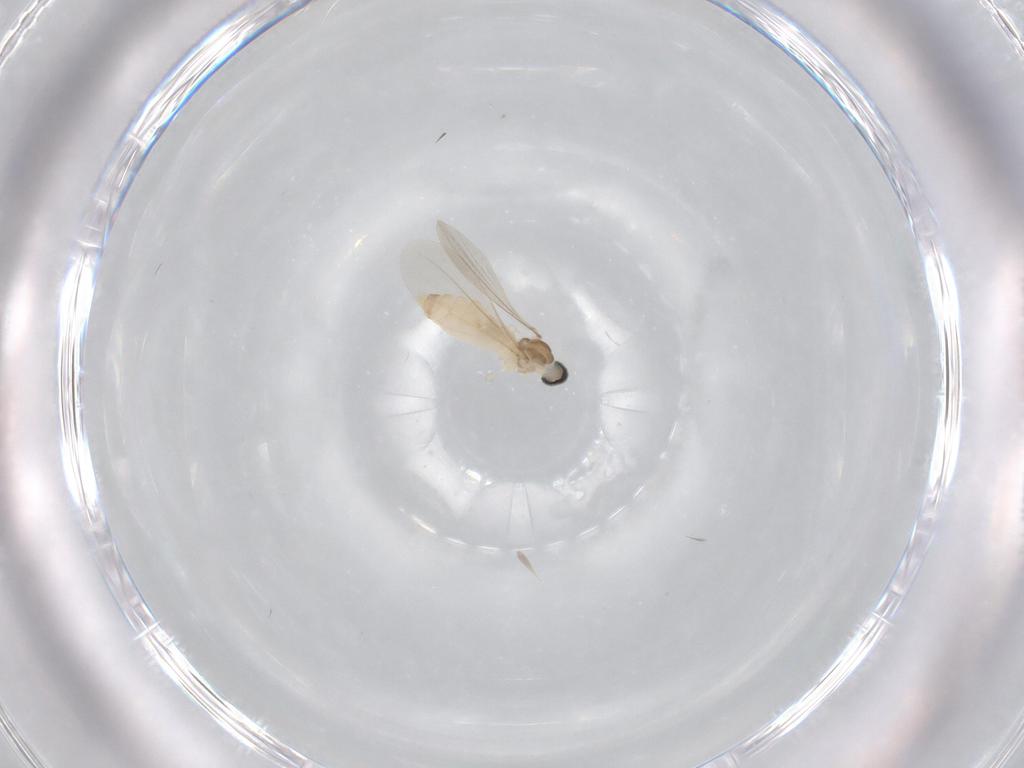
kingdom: Animalia
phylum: Arthropoda
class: Insecta
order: Diptera
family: Cecidomyiidae
